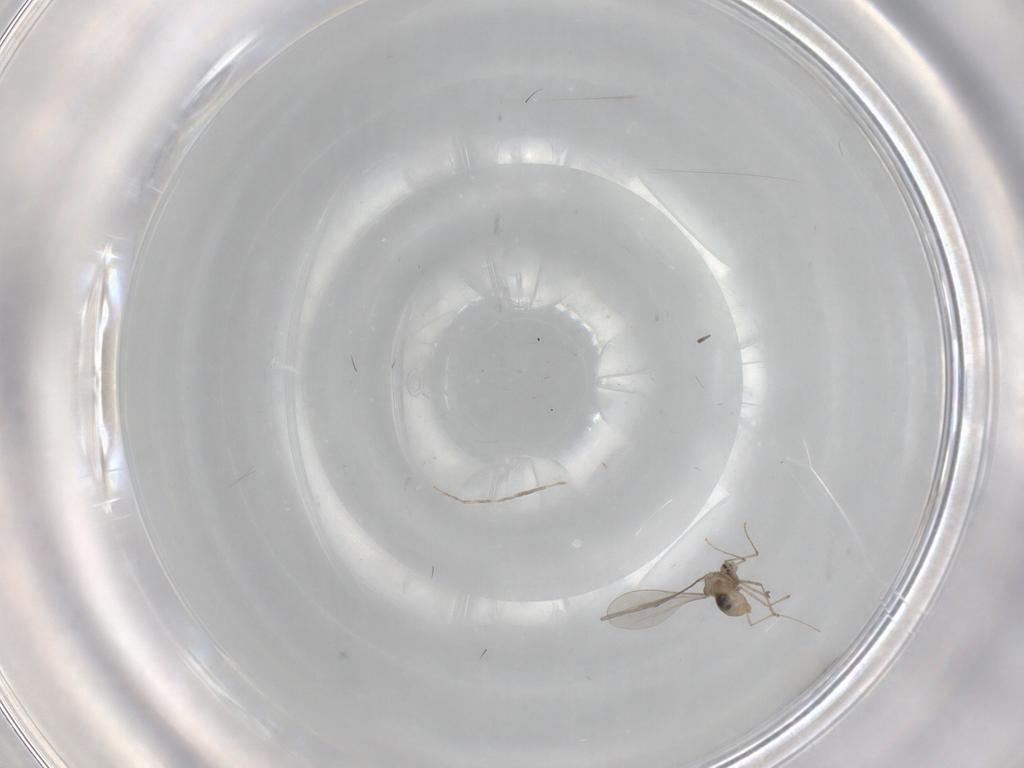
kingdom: Animalia
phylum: Arthropoda
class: Insecta
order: Diptera
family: Cecidomyiidae
